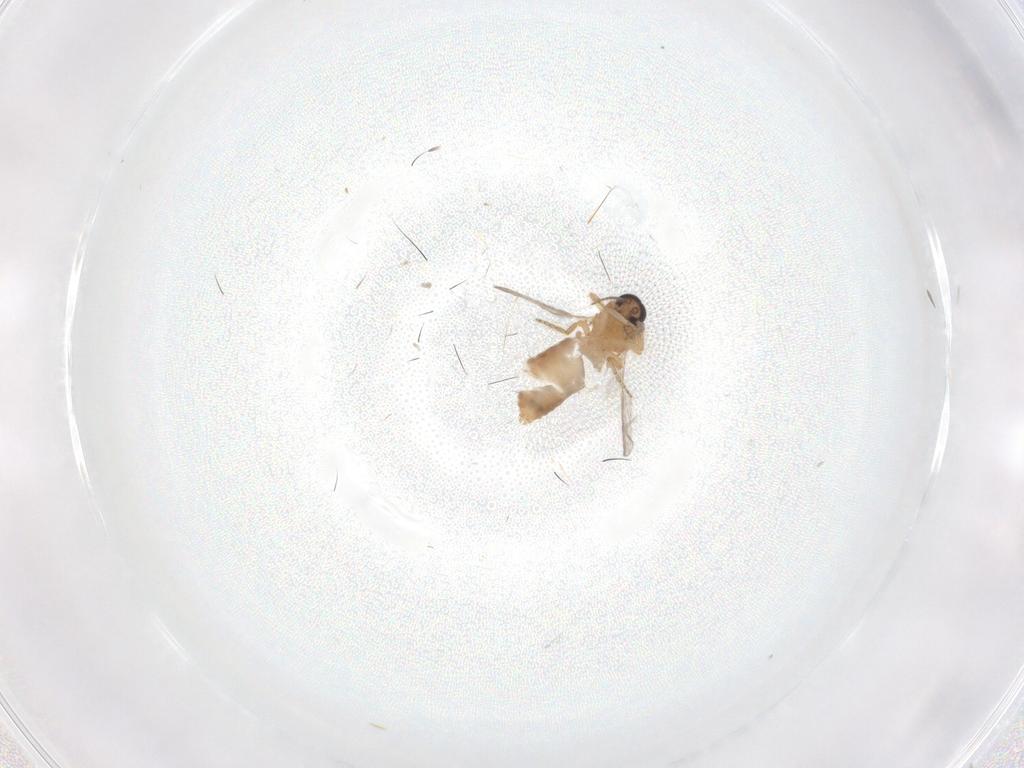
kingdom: Animalia
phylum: Arthropoda
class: Insecta
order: Diptera
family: Ceratopogonidae
